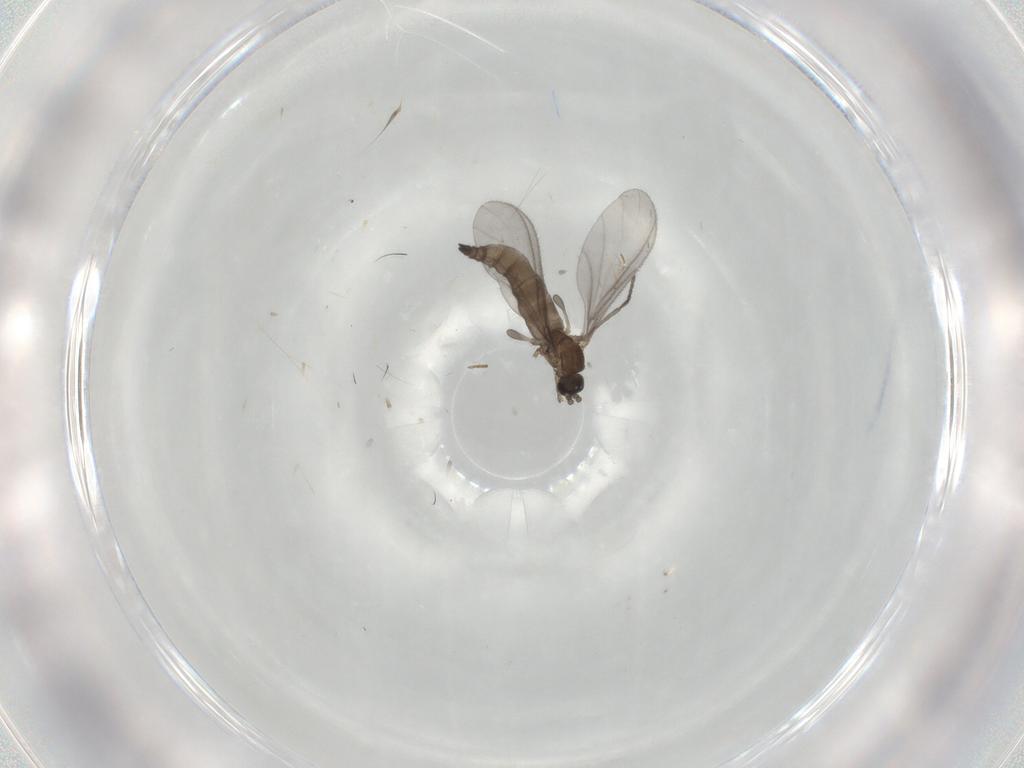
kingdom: Animalia
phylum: Arthropoda
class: Insecta
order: Diptera
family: Sciaridae
